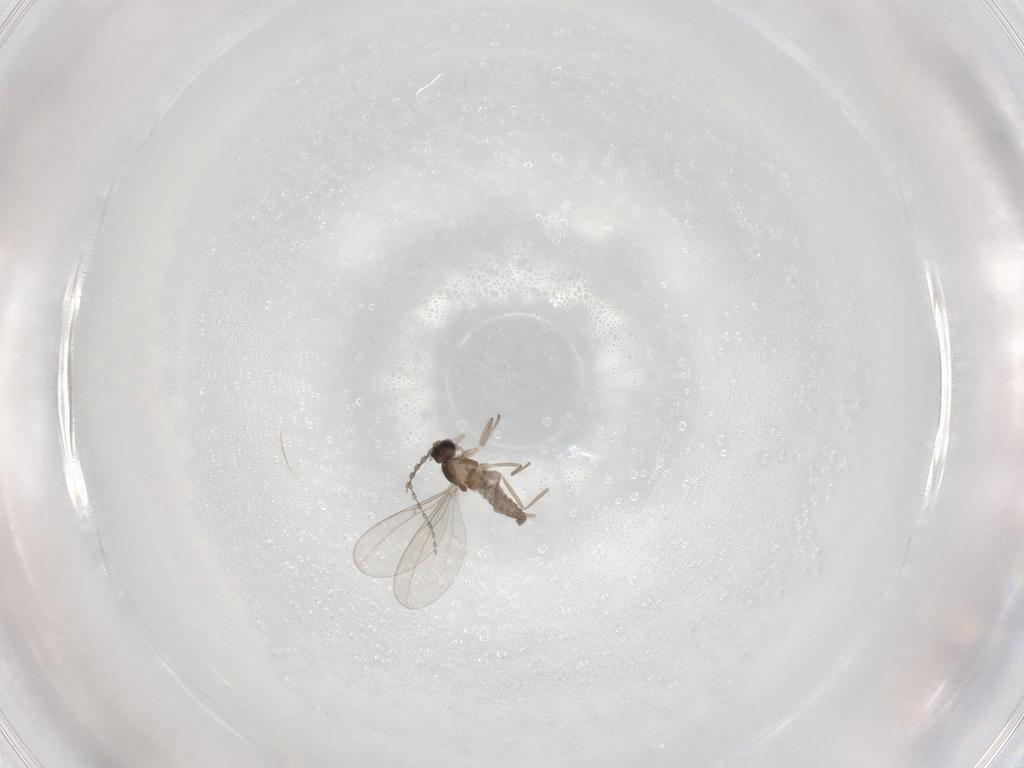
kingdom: Animalia
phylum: Arthropoda
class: Insecta
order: Diptera
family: Cecidomyiidae
